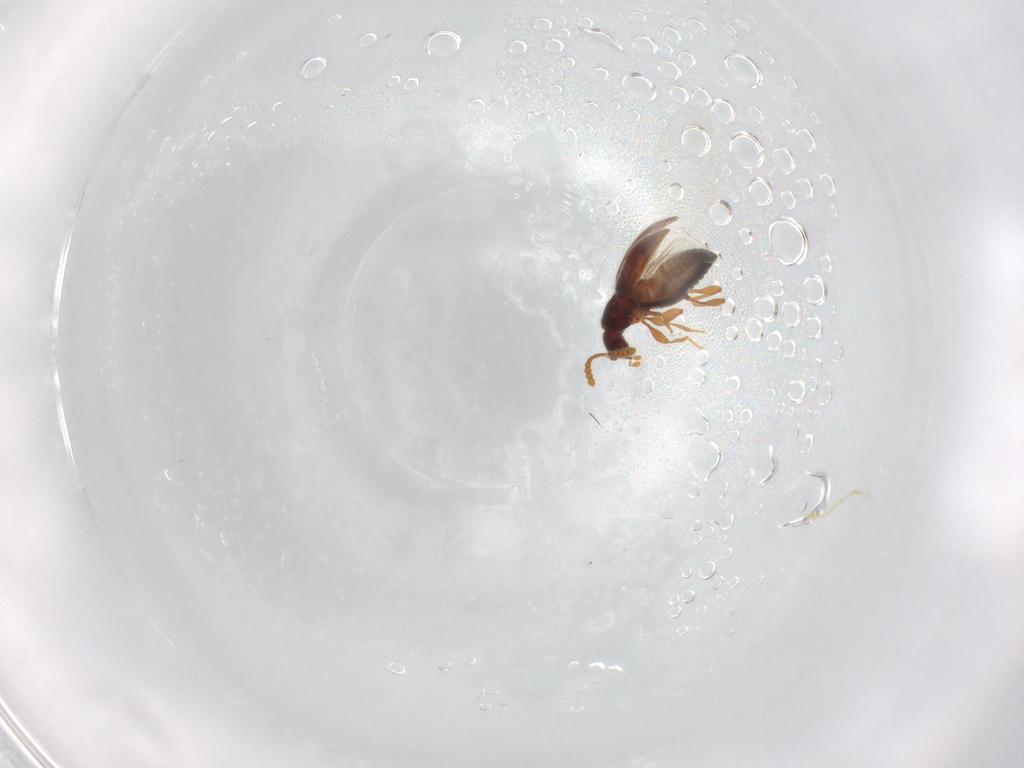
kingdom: Animalia
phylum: Arthropoda
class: Insecta
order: Coleoptera
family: Staphylinidae
